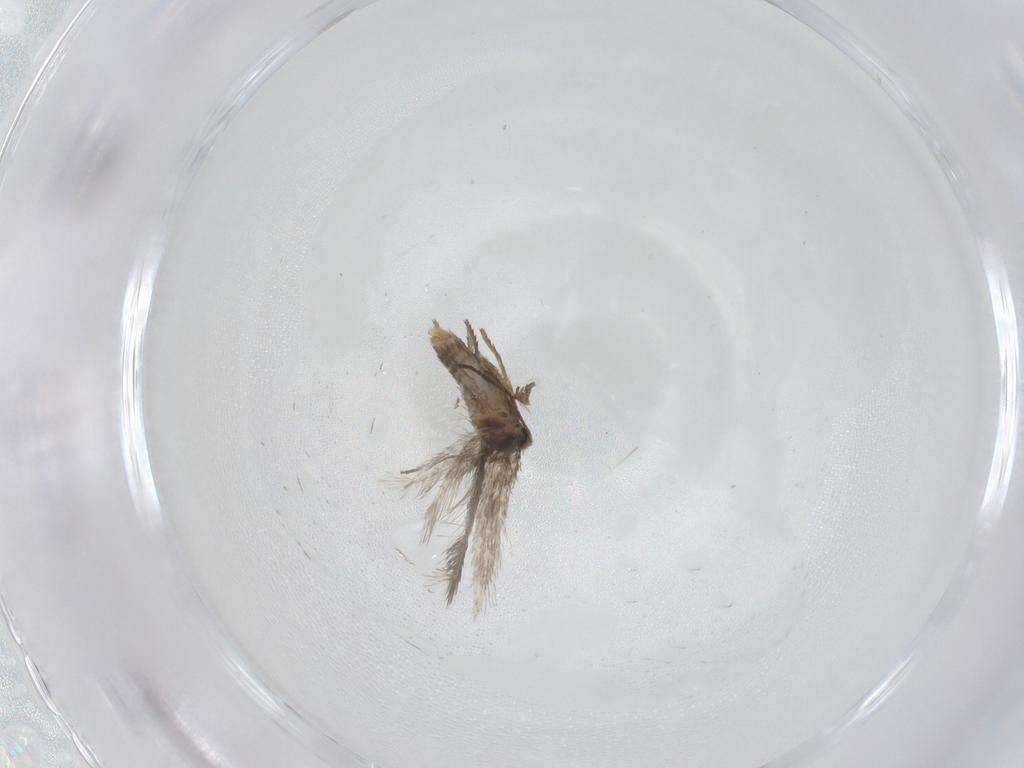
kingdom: Animalia
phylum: Arthropoda
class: Insecta
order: Lepidoptera
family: Nepticulidae
